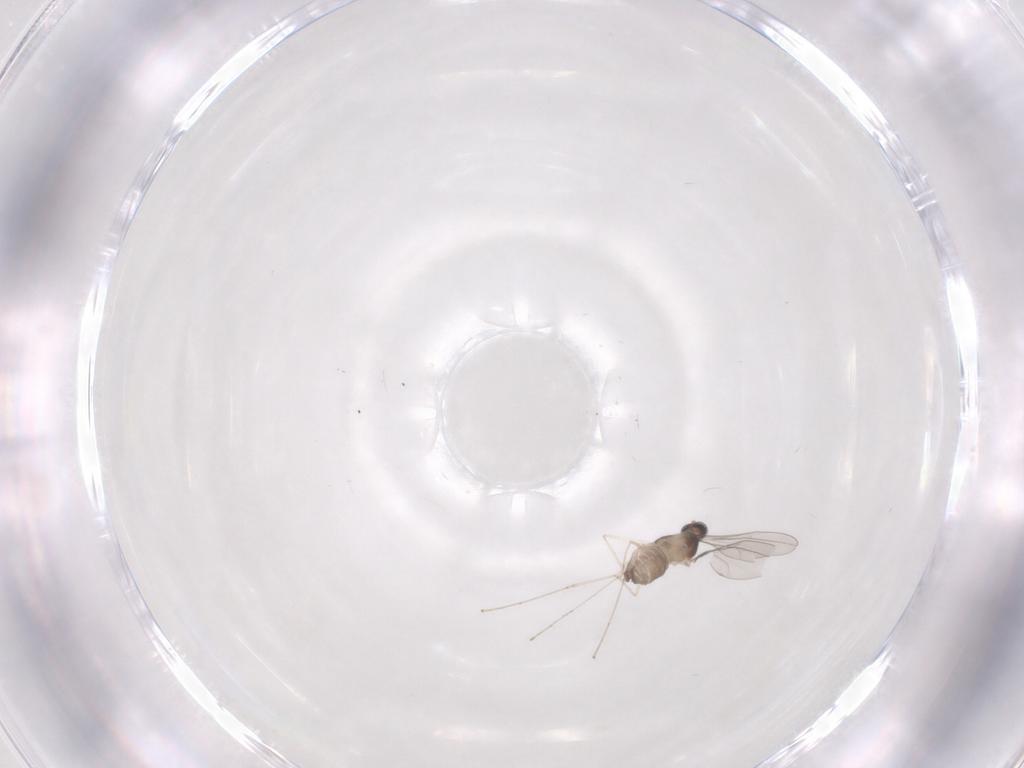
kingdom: Animalia
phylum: Arthropoda
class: Insecta
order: Diptera
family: Chironomidae
